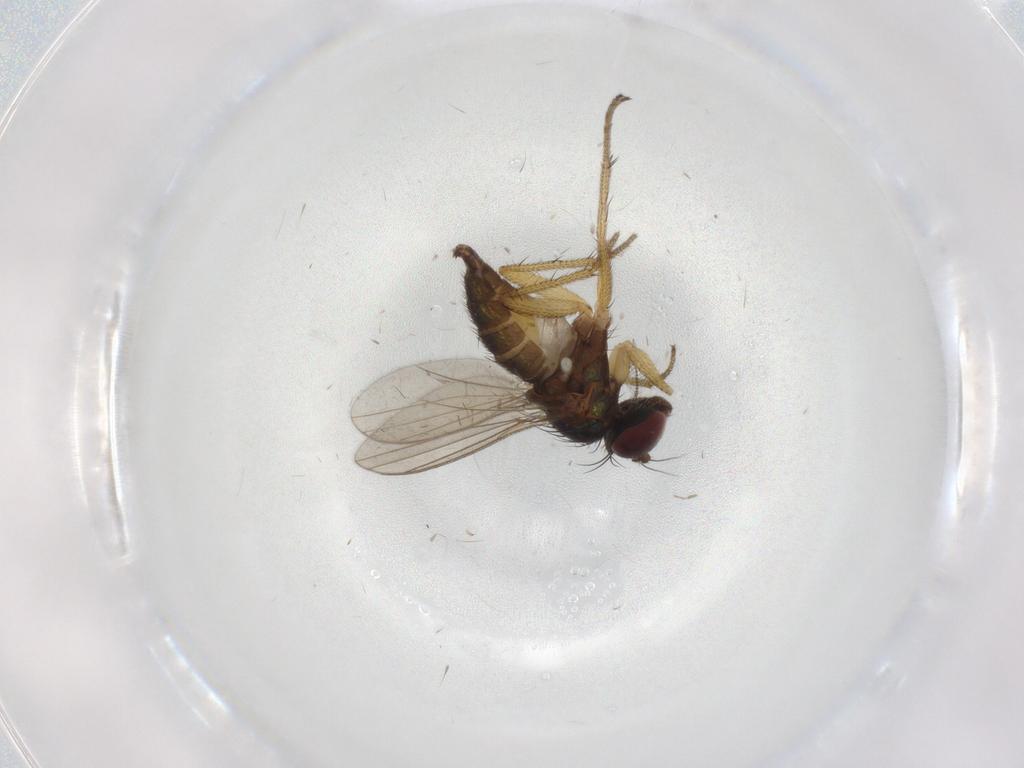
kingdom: Animalia
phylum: Arthropoda
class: Insecta
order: Diptera
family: Dolichopodidae
